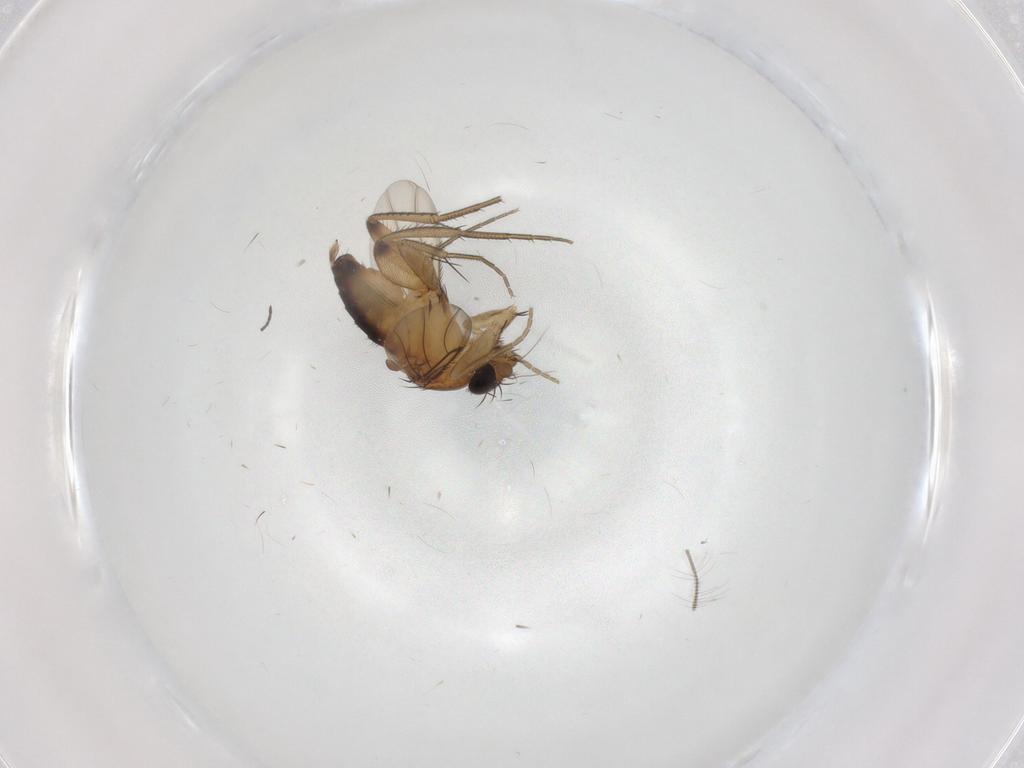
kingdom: Animalia
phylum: Arthropoda
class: Insecta
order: Diptera
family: Phoridae
